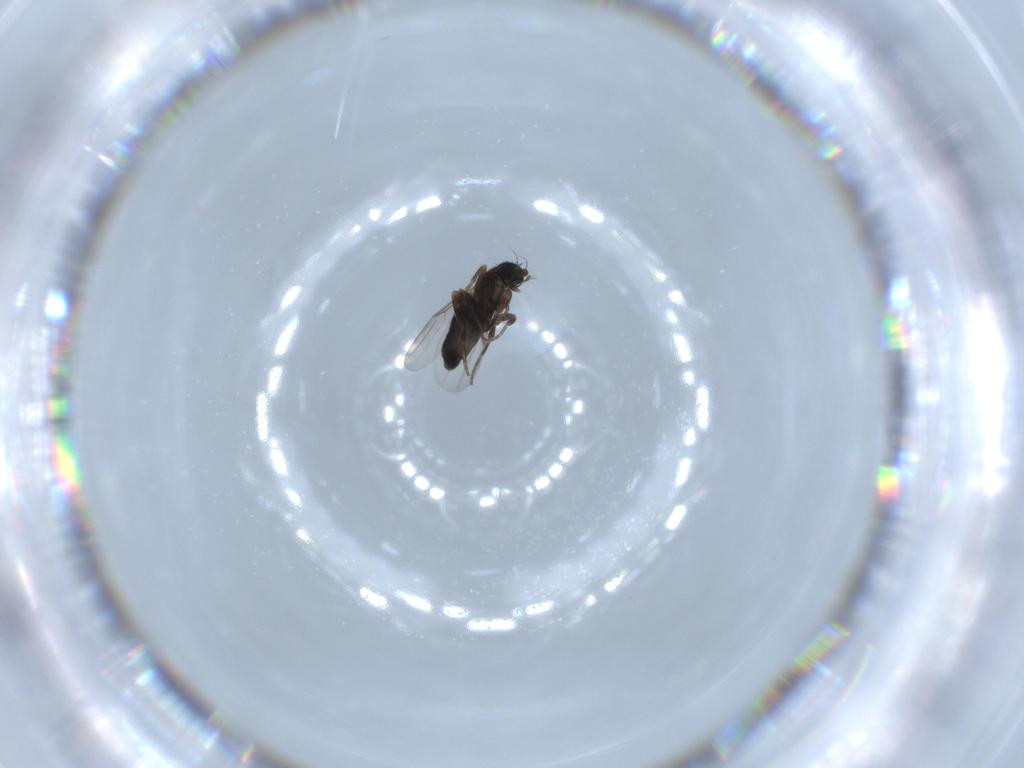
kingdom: Animalia
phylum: Arthropoda
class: Insecta
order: Diptera
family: Phoridae
